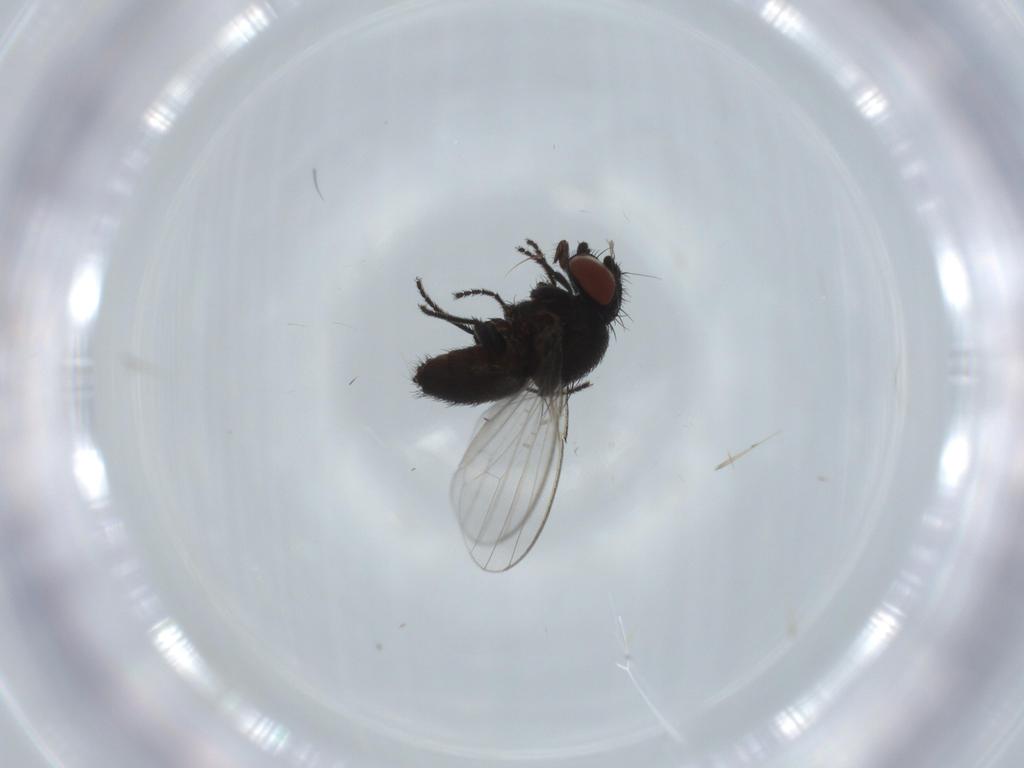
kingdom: Animalia
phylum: Arthropoda
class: Insecta
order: Diptera
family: Milichiidae
